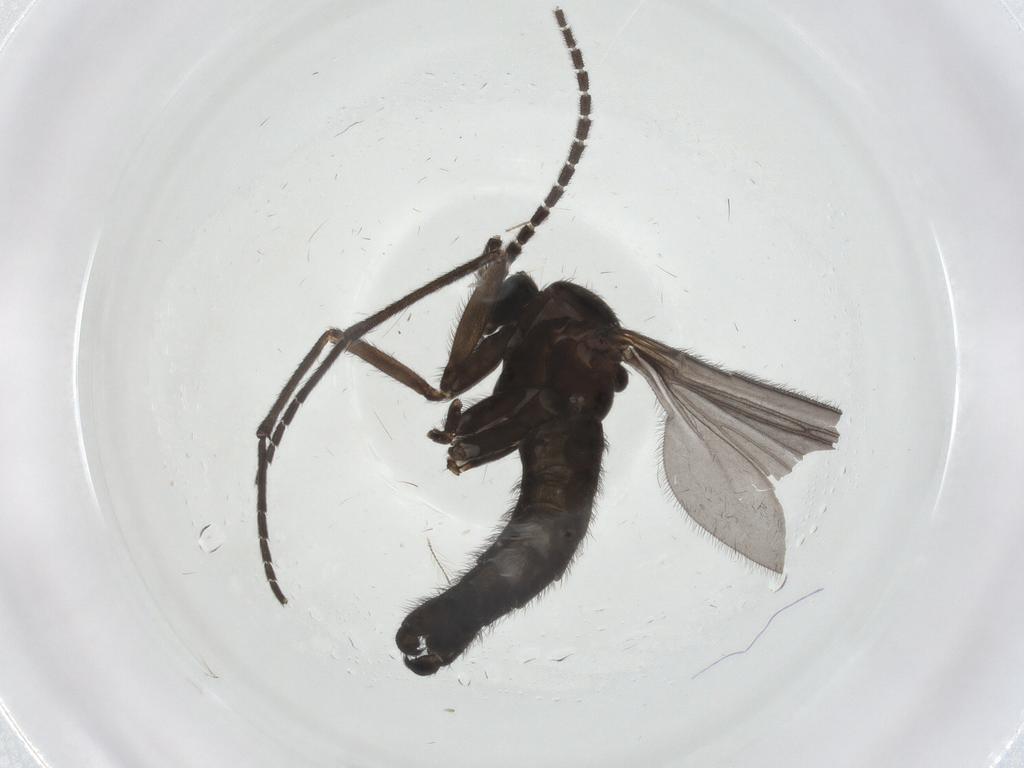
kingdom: Animalia
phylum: Arthropoda
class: Insecta
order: Diptera
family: Sciaridae
